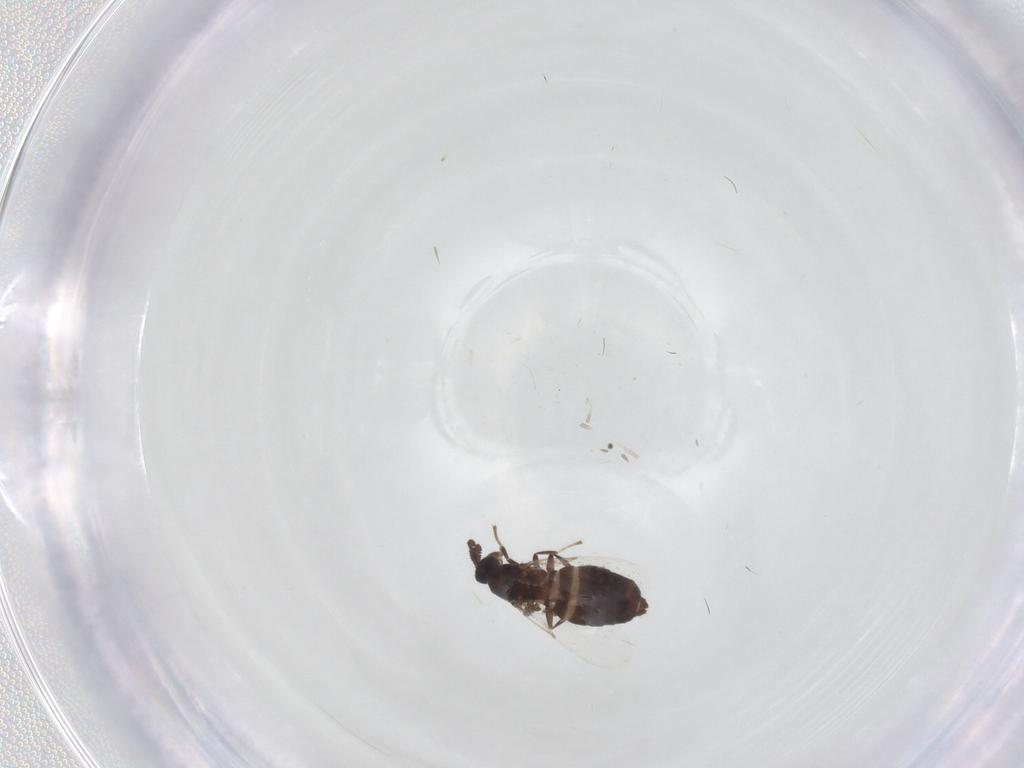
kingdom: Animalia
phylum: Arthropoda
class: Insecta
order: Diptera
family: Scatopsidae
